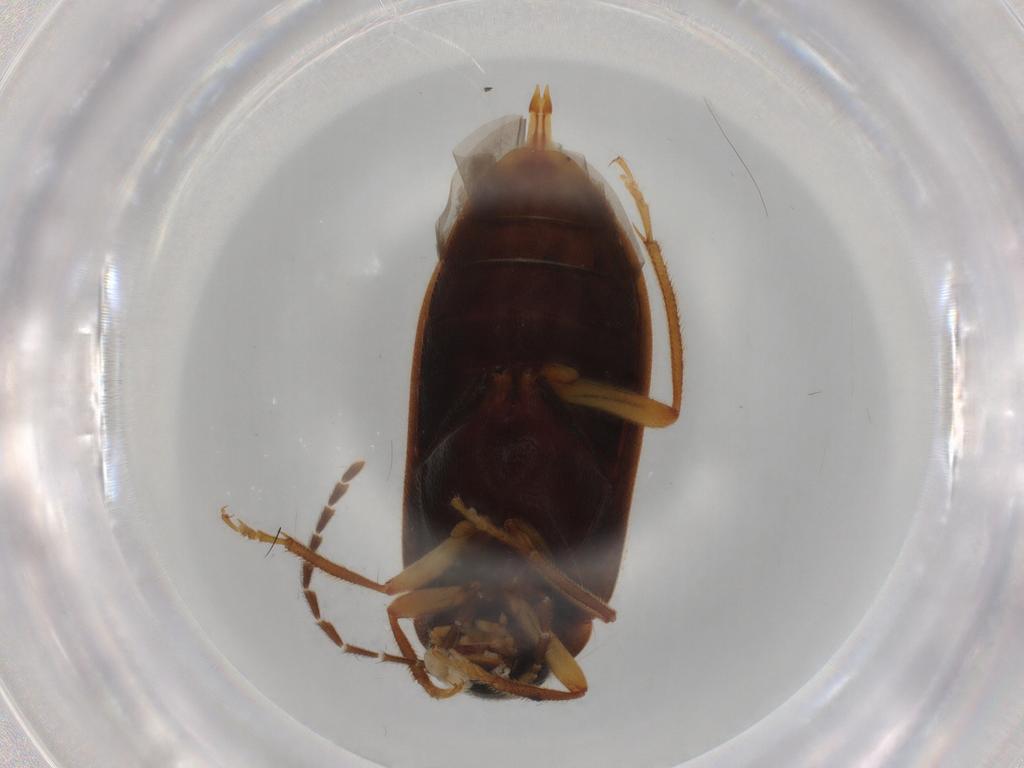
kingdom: Animalia
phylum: Arthropoda
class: Insecta
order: Coleoptera
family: Ptilodactylidae
